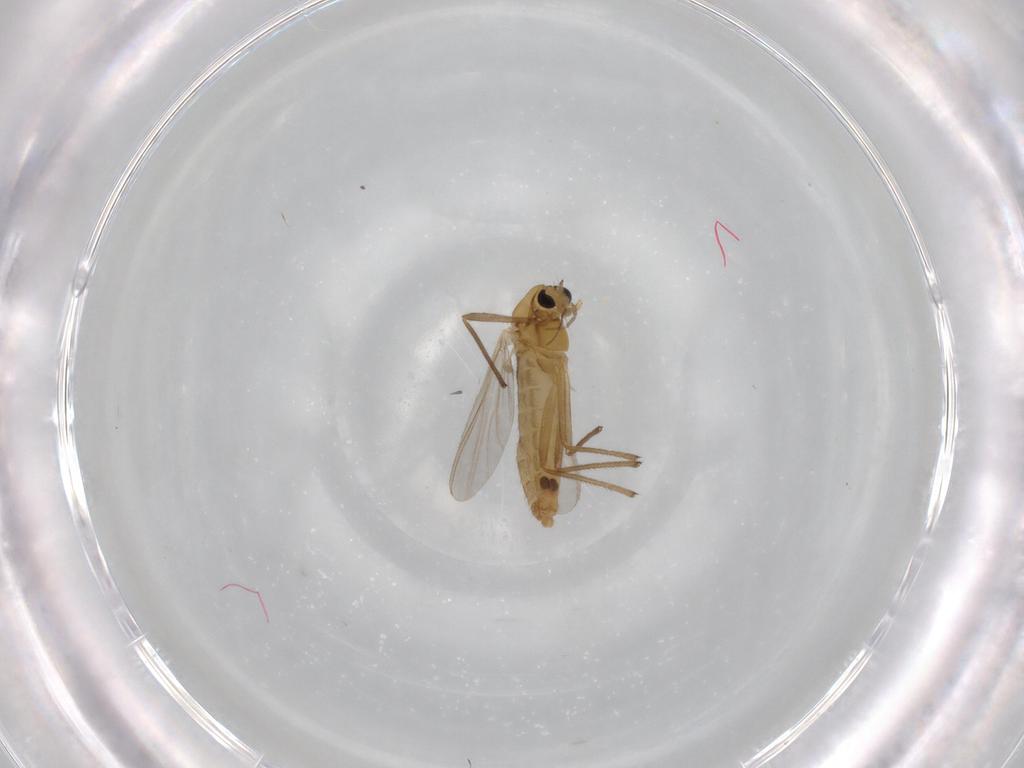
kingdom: Animalia
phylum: Arthropoda
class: Insecta
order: Diptera
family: Chironomidae
